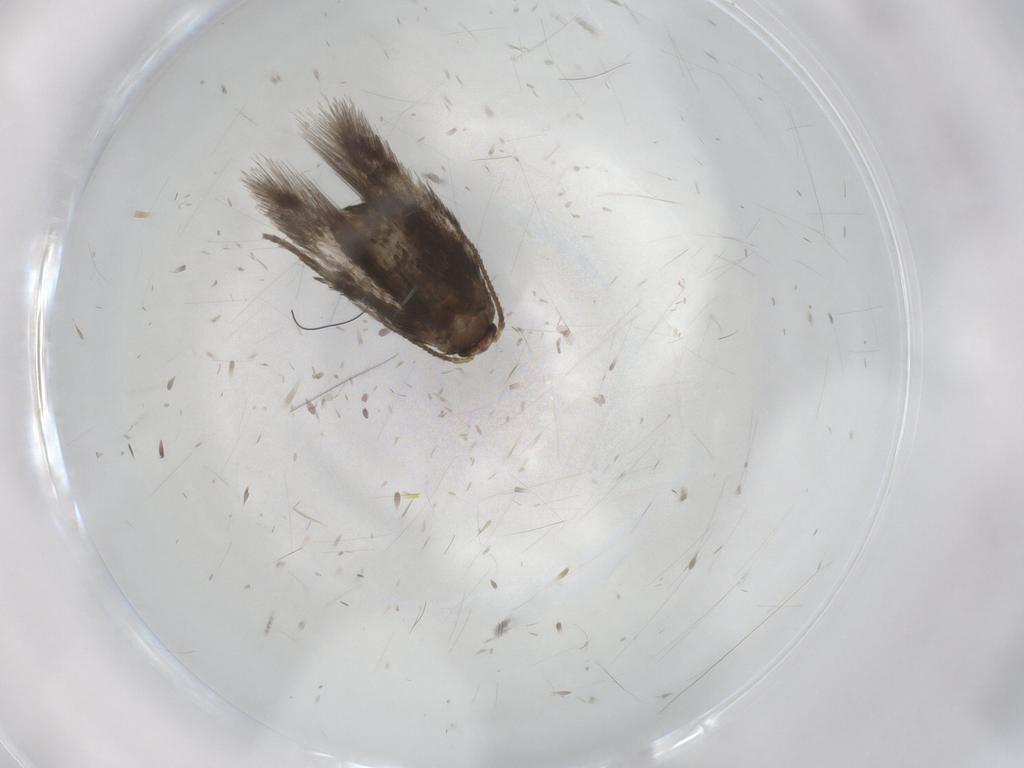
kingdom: Animalia
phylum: Arthropoda
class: Insecta
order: Lepidoptera
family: Nepticulidae
